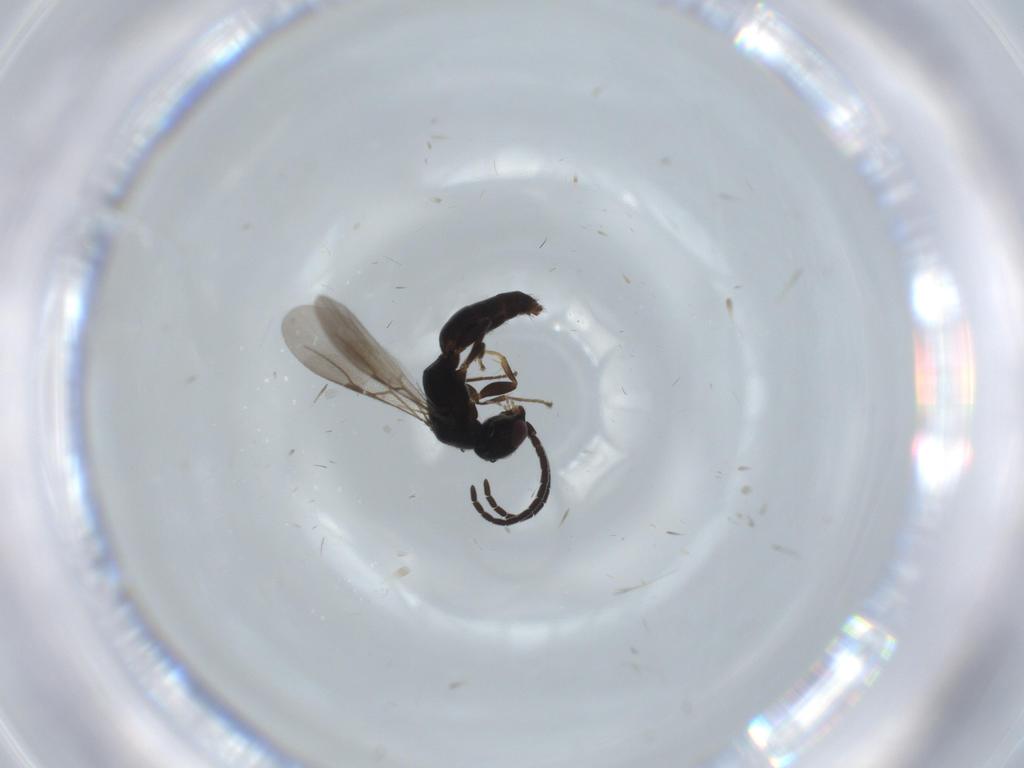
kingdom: Animalia
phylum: Arthropoda
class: Insecta
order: Hymenoptera
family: Bethylidae
